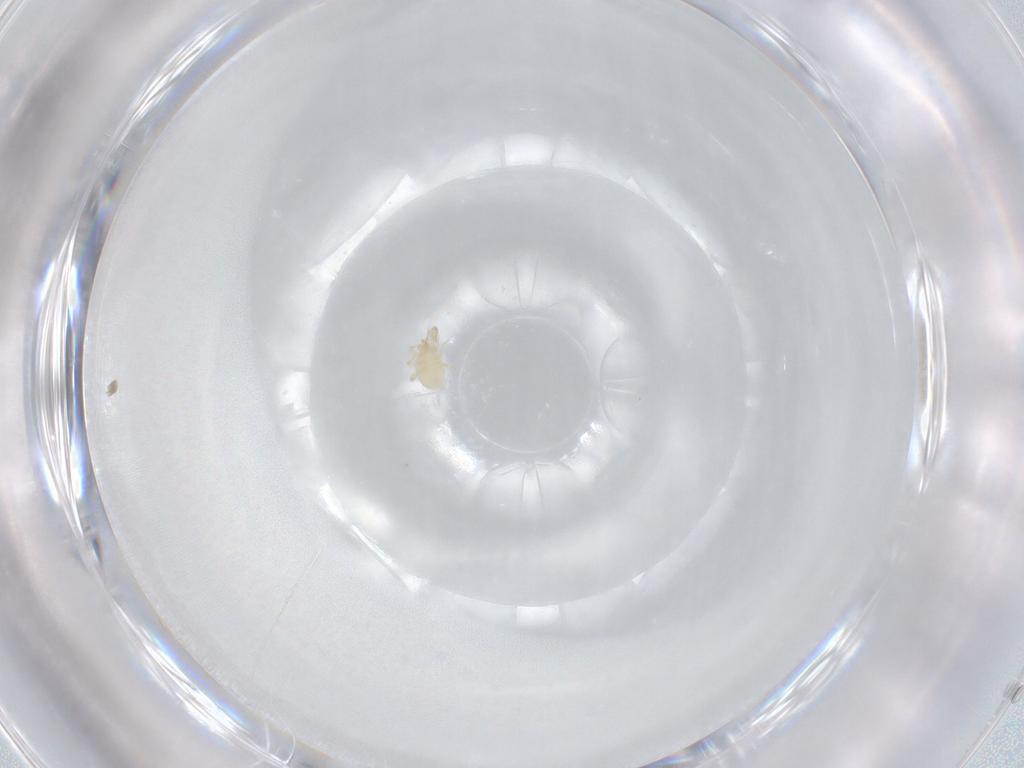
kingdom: Animalia
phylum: Arthropoda
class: Arachnida
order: Mesostigmata
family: Phytoseiidae
